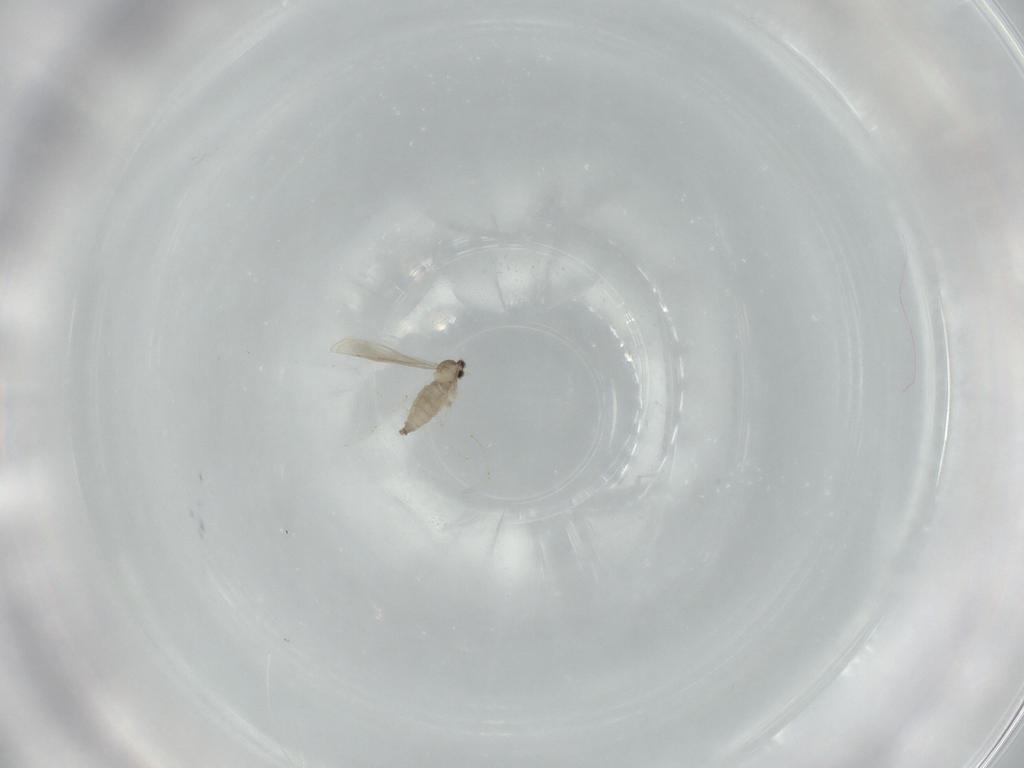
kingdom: Animalia
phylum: Arthropoda
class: Insecta
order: Diptera
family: Cecidomyiidae
